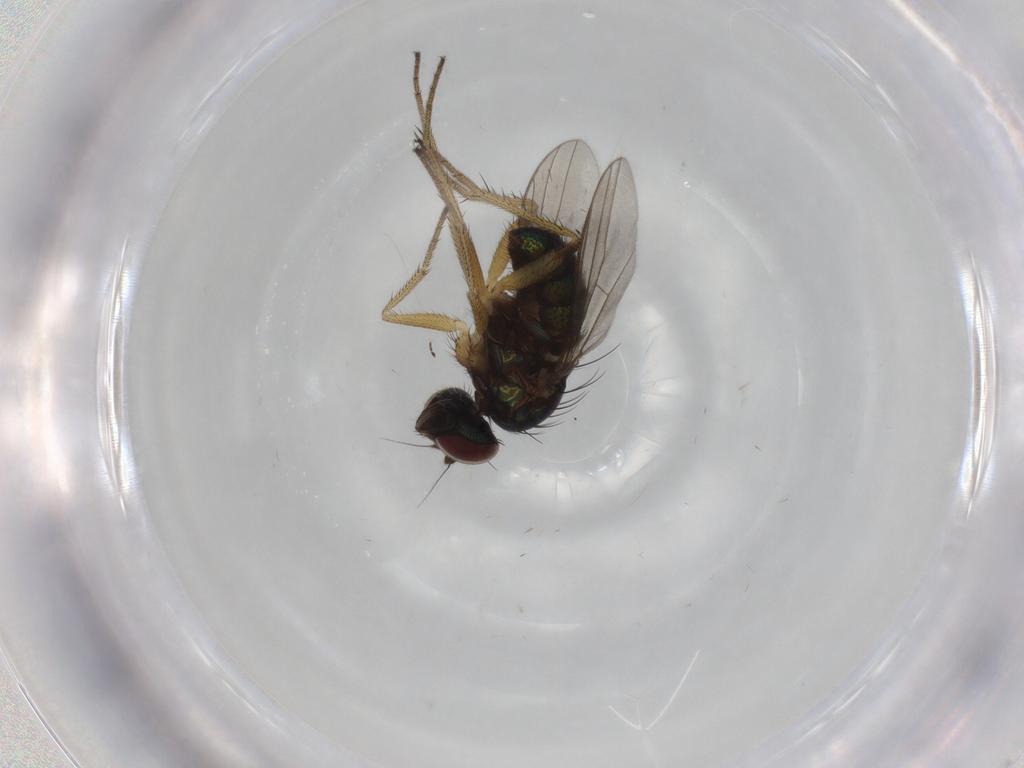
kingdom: Animalia
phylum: Arthropoda
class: Insecta
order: Diptera
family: Dolichopodidae
